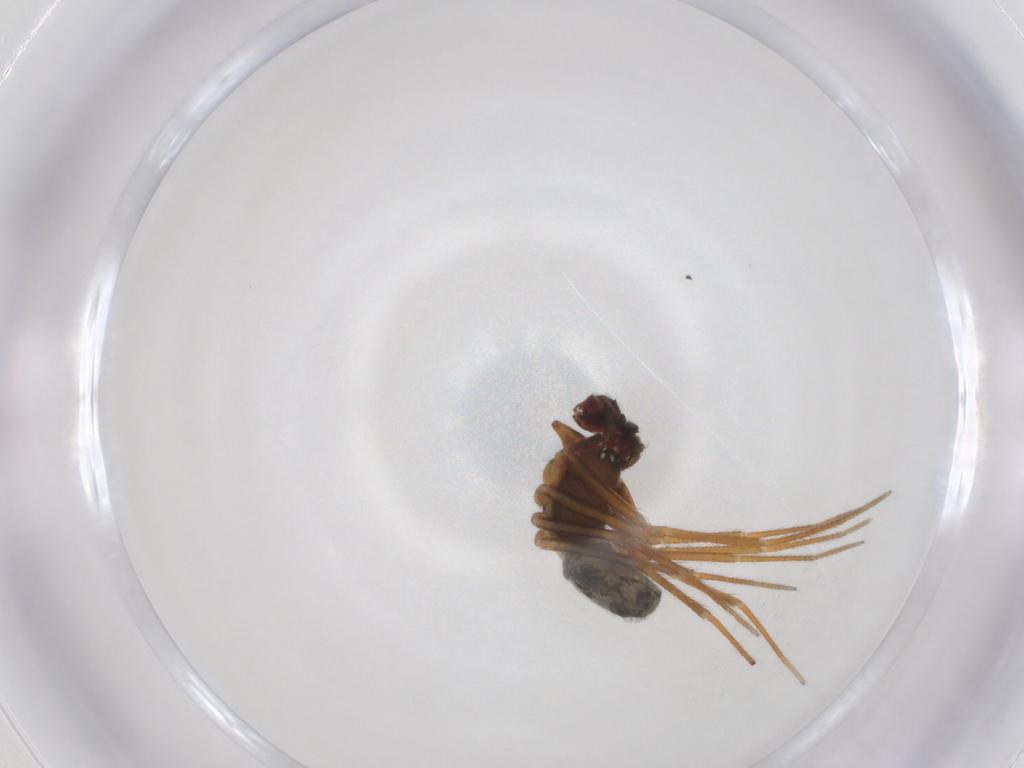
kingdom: Animalia
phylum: Arthropoda
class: Arachnida
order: Araneae
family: Linyphiidae
